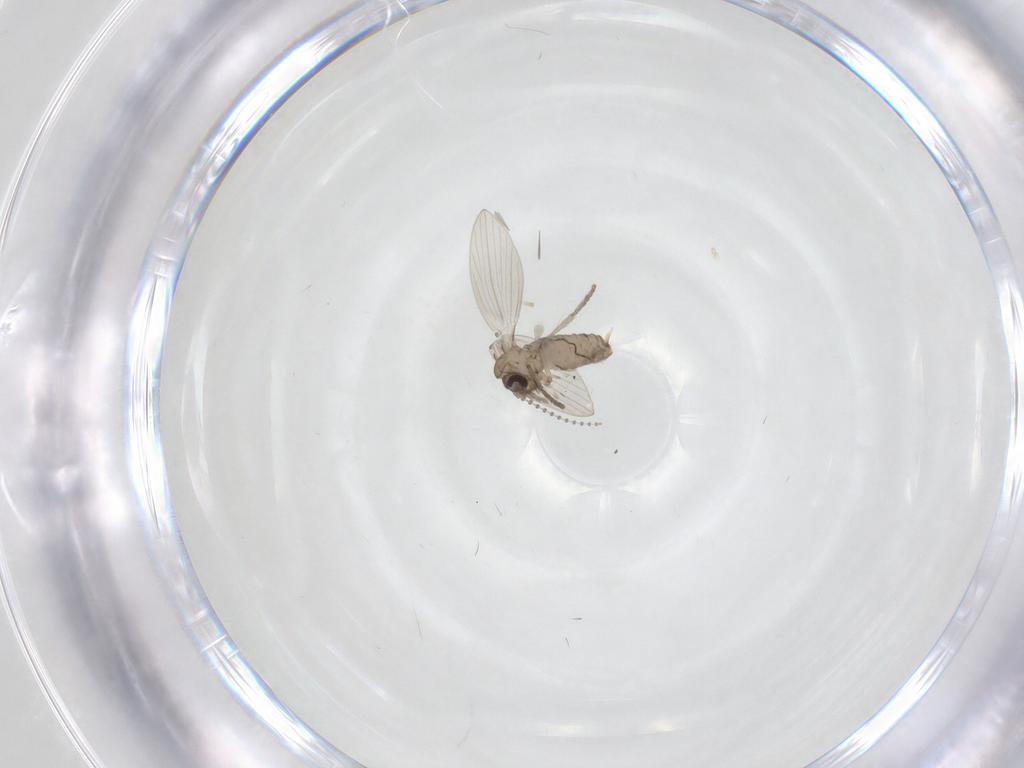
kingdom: Animalia
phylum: Arthropoda
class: Insecta
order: Diptera
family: Psychodidae
